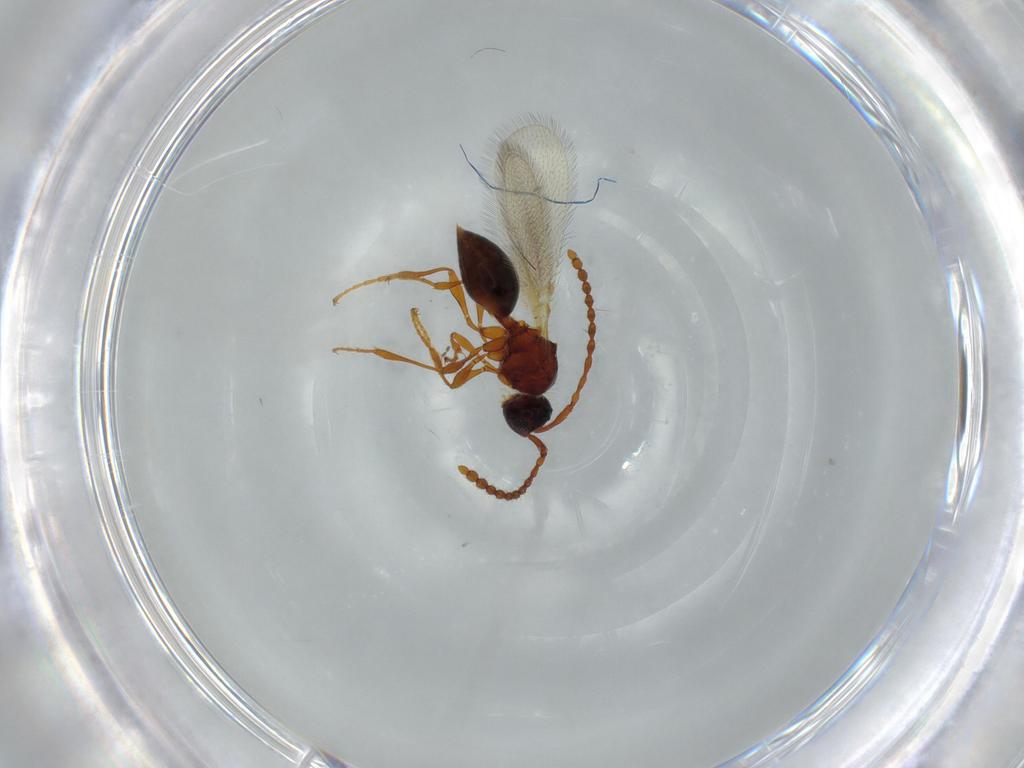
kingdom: Animalia
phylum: Arthropoda
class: Insecta
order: Hymenoptera
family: Diapriidae
